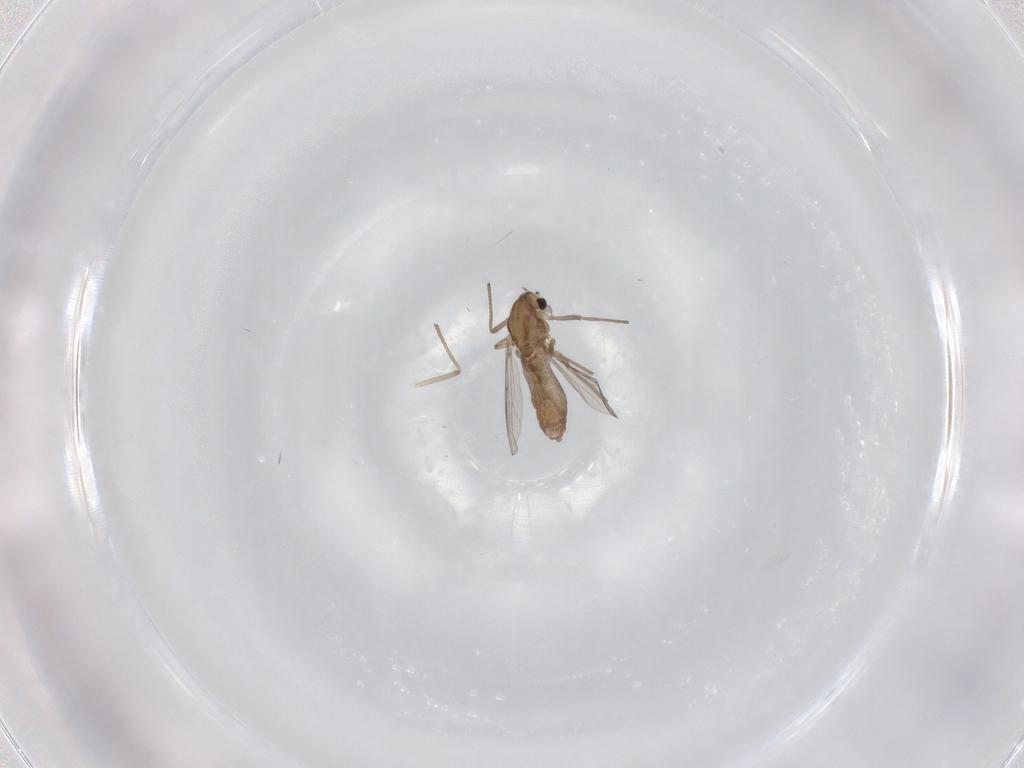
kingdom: Animalia
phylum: Arthropoda
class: Insecta
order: Diptera
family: Chironomidae
